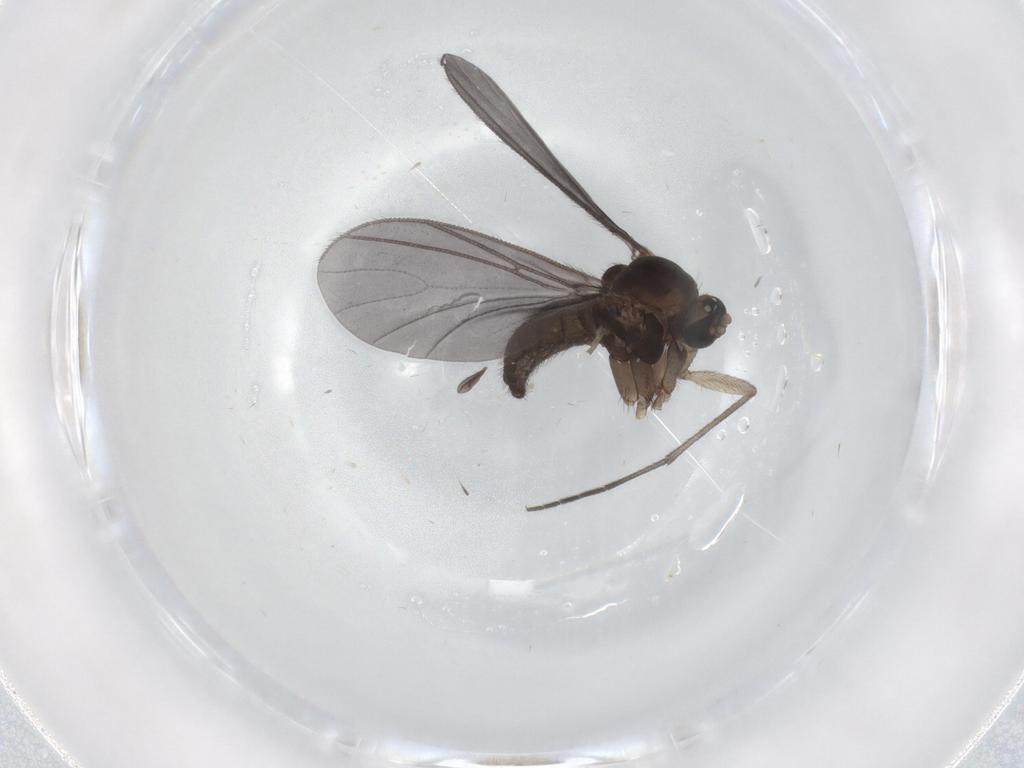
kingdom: Animalia
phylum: Arthropoda
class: Insecta
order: Diptera
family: Sciaridae
